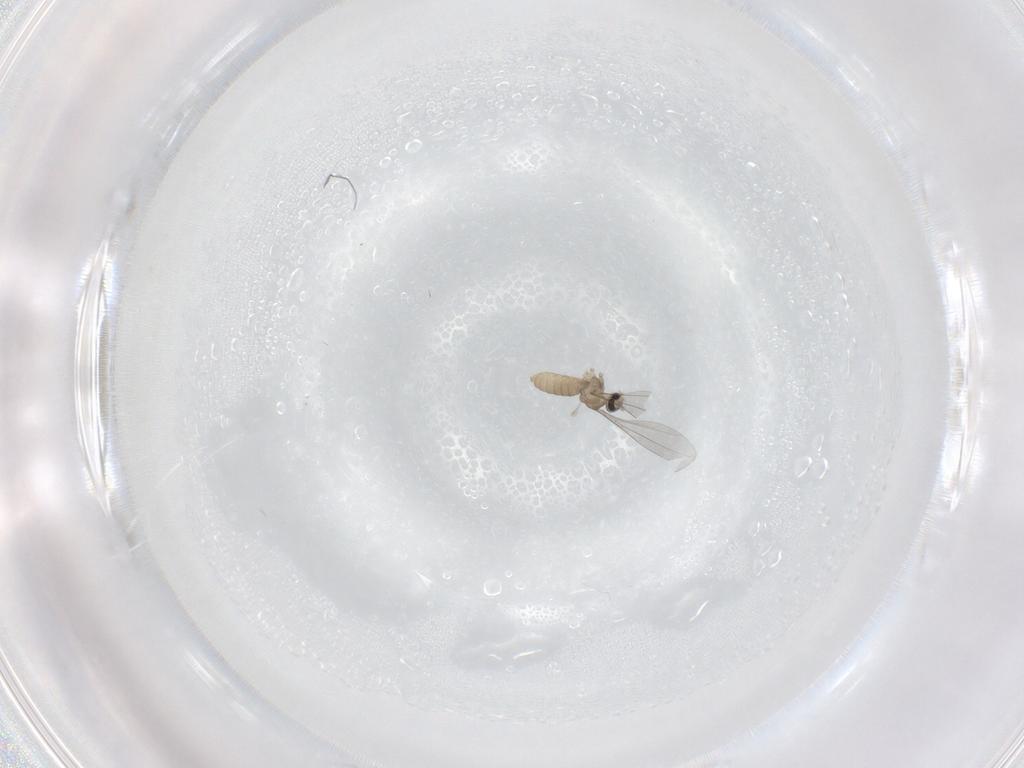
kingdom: Animalia
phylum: Arthropoda
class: Insecta
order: Diptera
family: Cecidomyiidae
